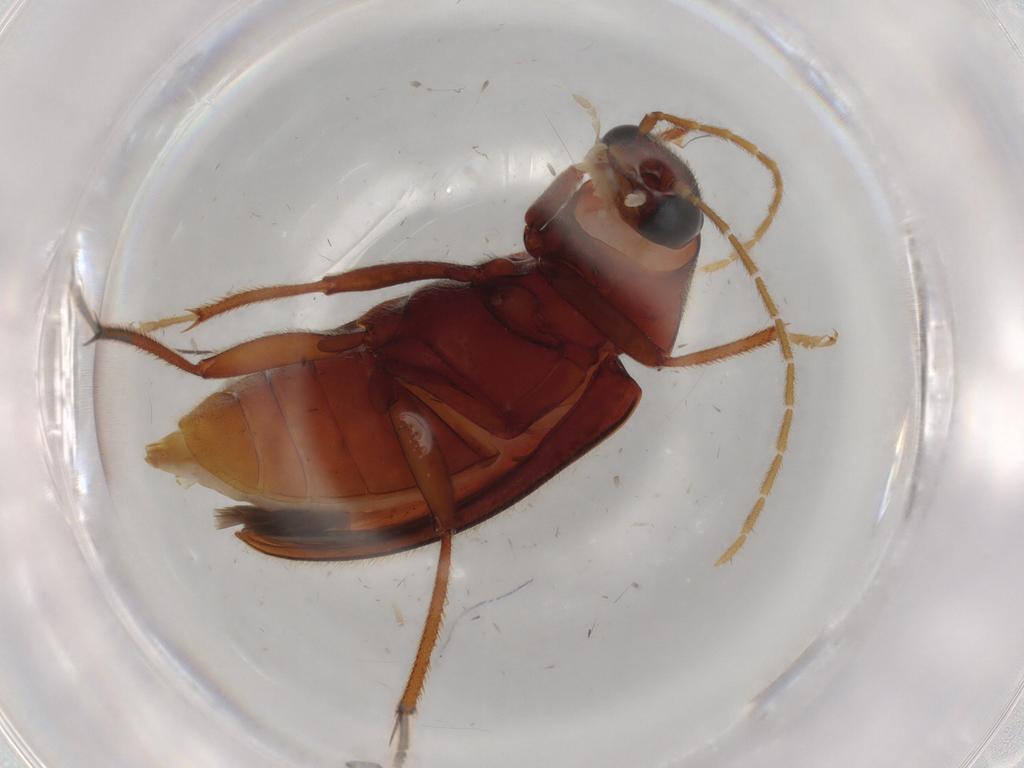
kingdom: Animalia
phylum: Arthropoda
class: Insecta
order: Coleoptera
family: Ptilodactylidae
